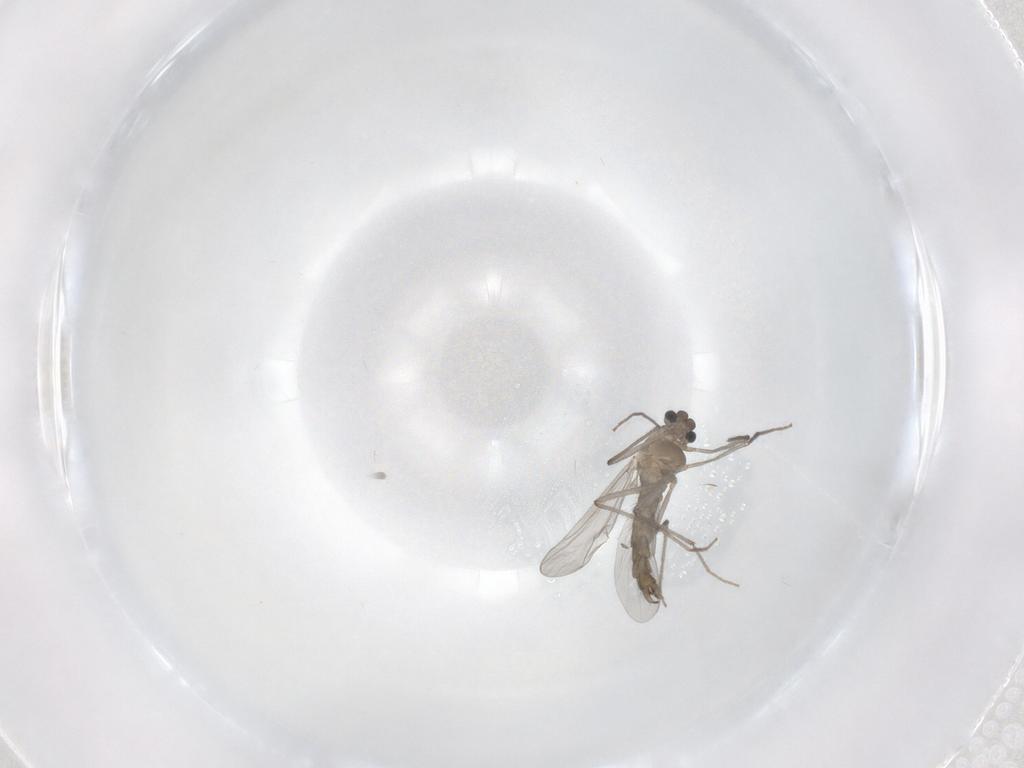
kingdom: Animalia
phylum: Arthropoda
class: Insecta
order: Diptera
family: Chironomidae
